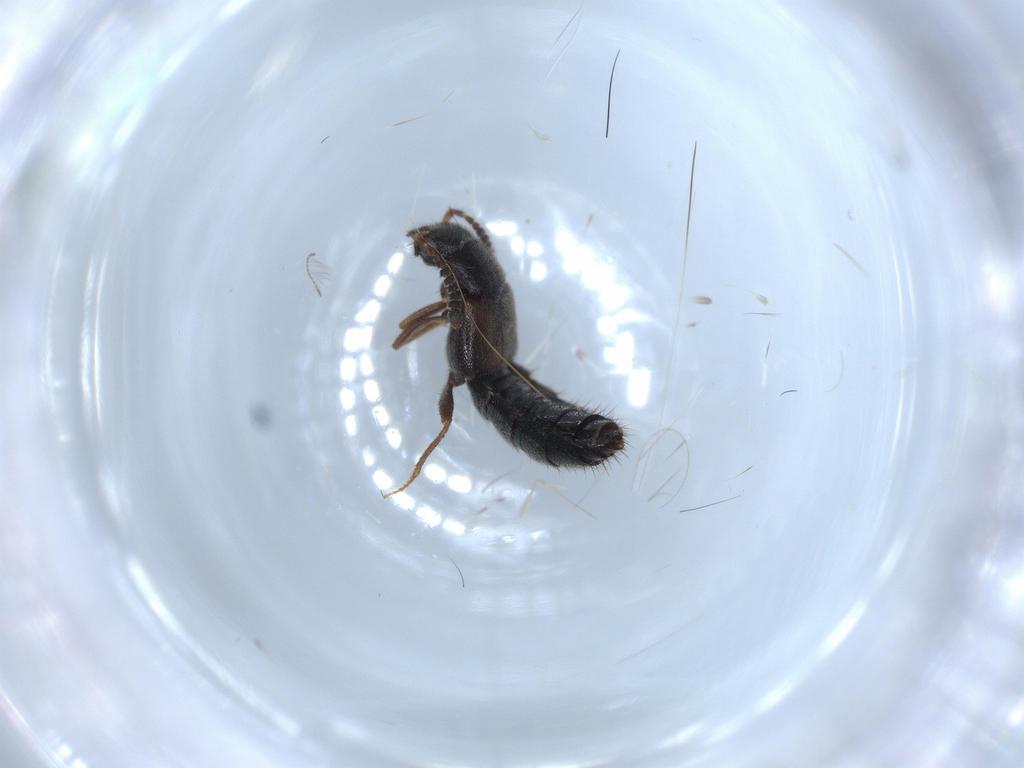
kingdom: Animalia
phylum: Arthropoda
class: Insecta
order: Coleoptera
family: Staphylinidae
